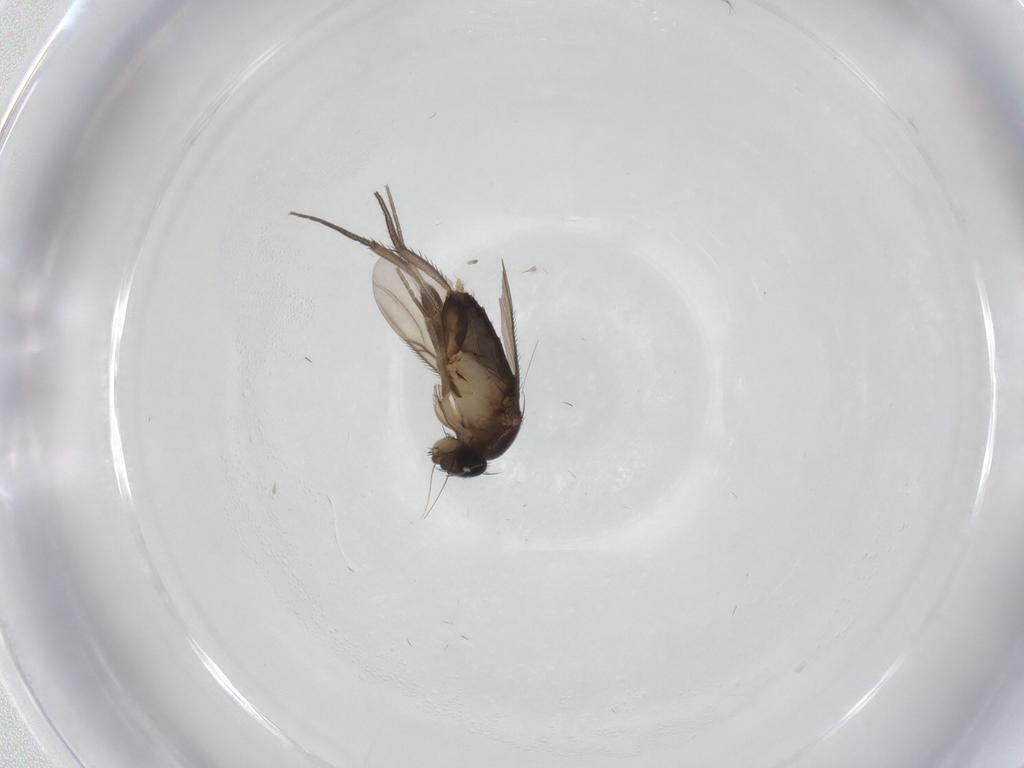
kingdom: Animalia
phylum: Arthropoda
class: Insecta
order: Diptera
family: Phoridae
